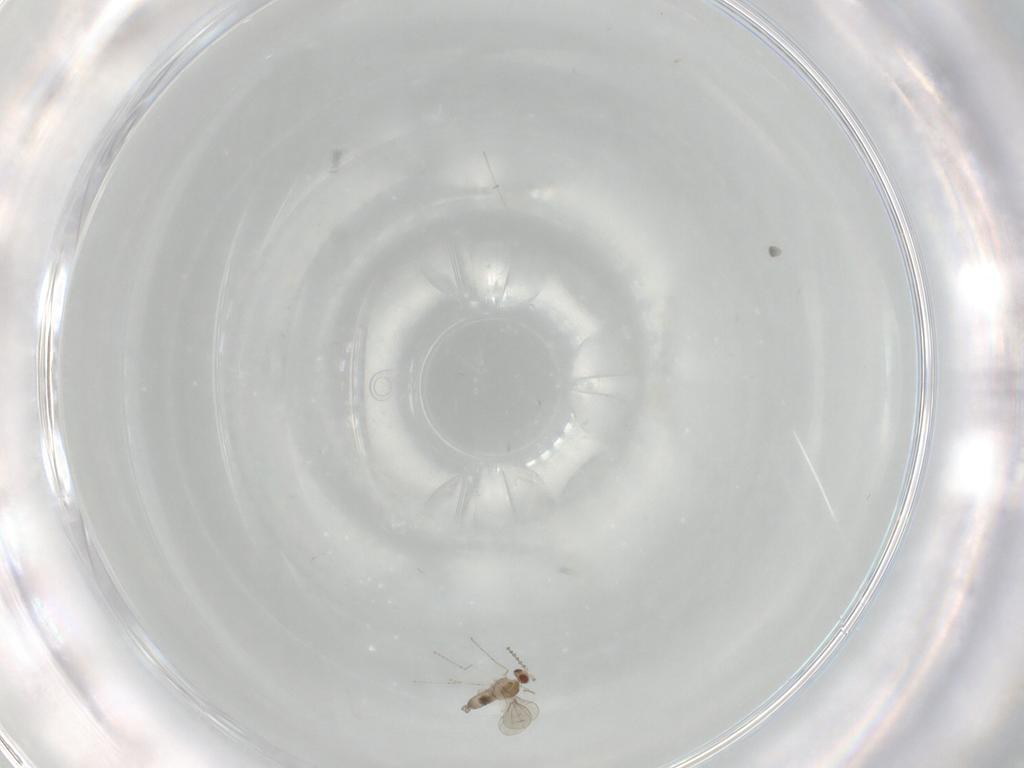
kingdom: Animalia
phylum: Arthropoda
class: Insecta
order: Diptera
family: Cecidomyiidae
